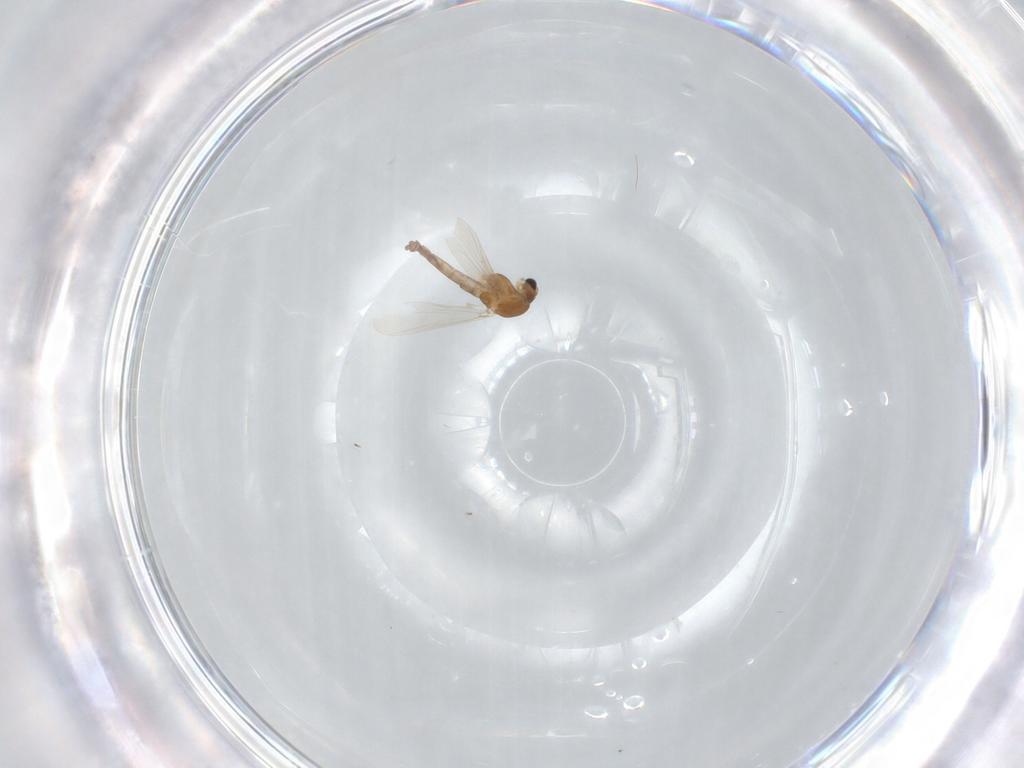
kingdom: Animalia
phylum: Arthropoda
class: Insecta
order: Diptera
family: Chironomidae
